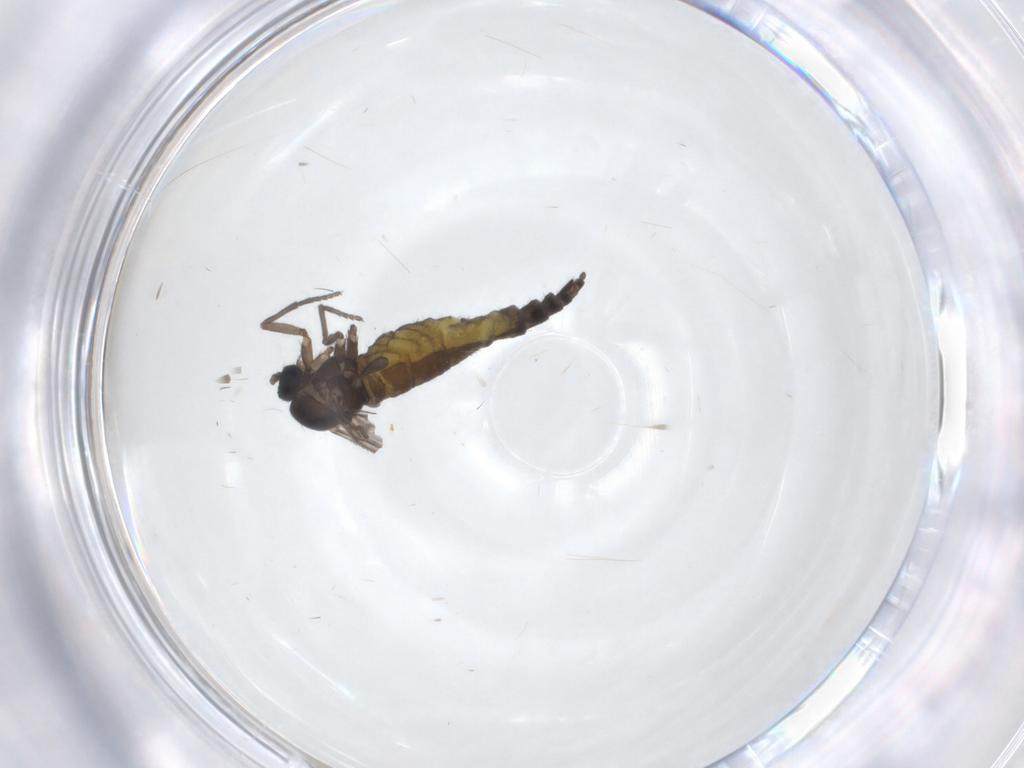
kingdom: Animalia
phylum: Arthropoda
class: Insecta
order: Diptera
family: Sciaridae
